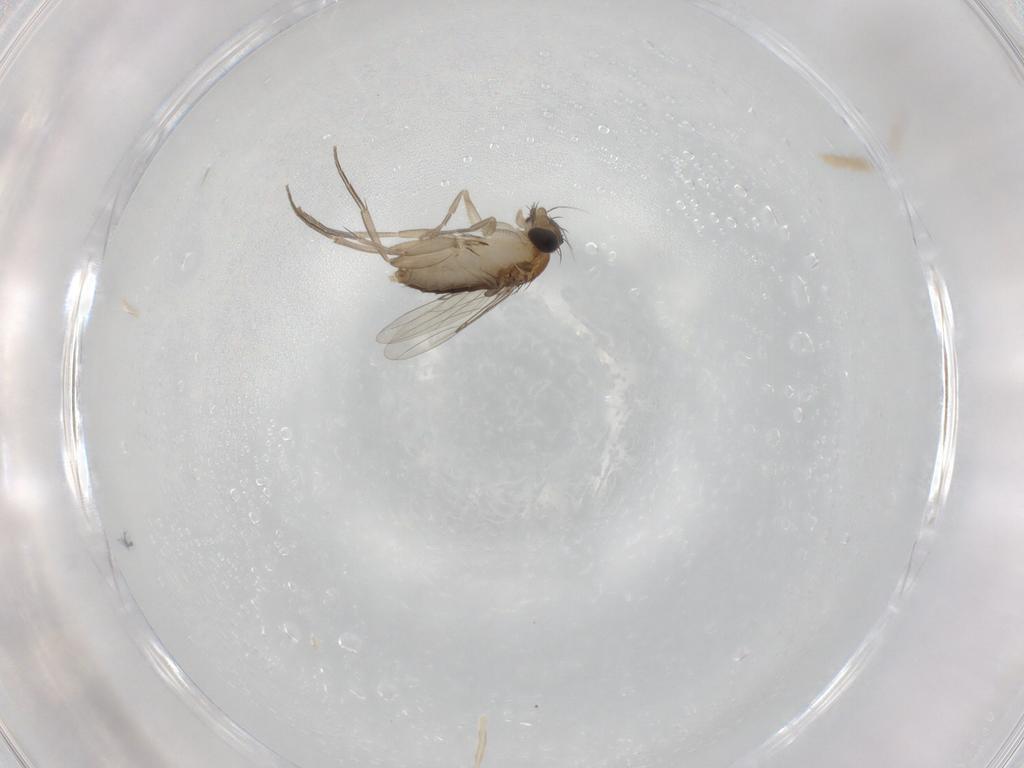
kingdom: Animalia
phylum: Arthropoda
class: Insecta
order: Diptera
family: Phoridae
